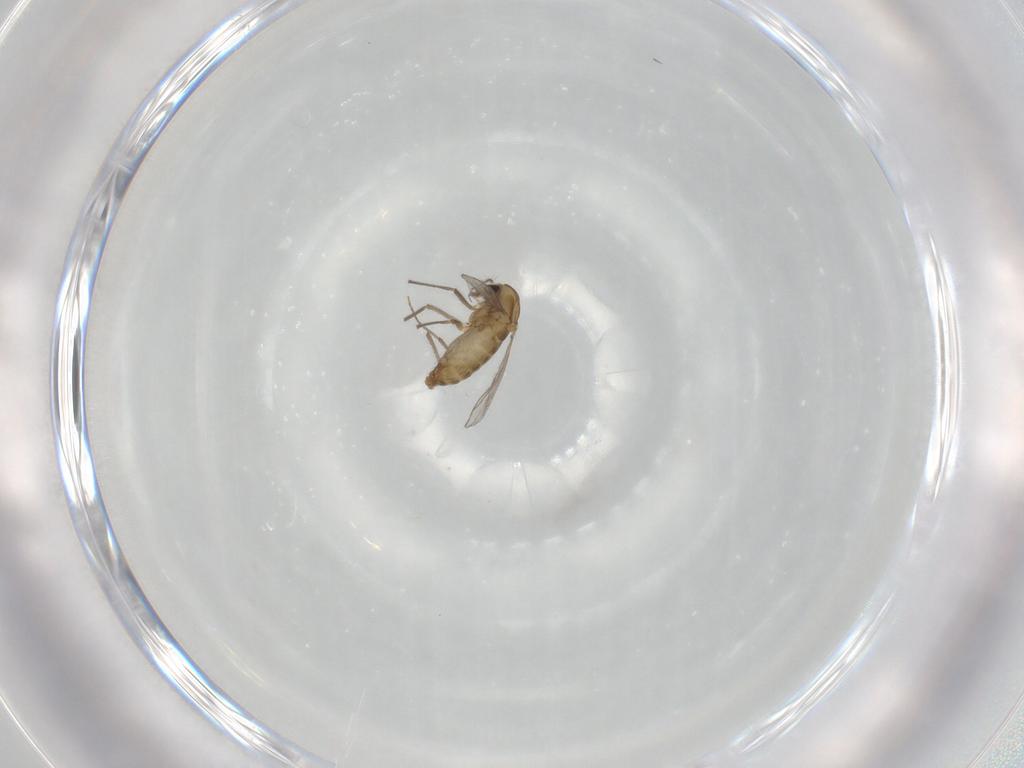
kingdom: Animalia
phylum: Arthropoda
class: Insecta
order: Diptera
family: Chironomidae
